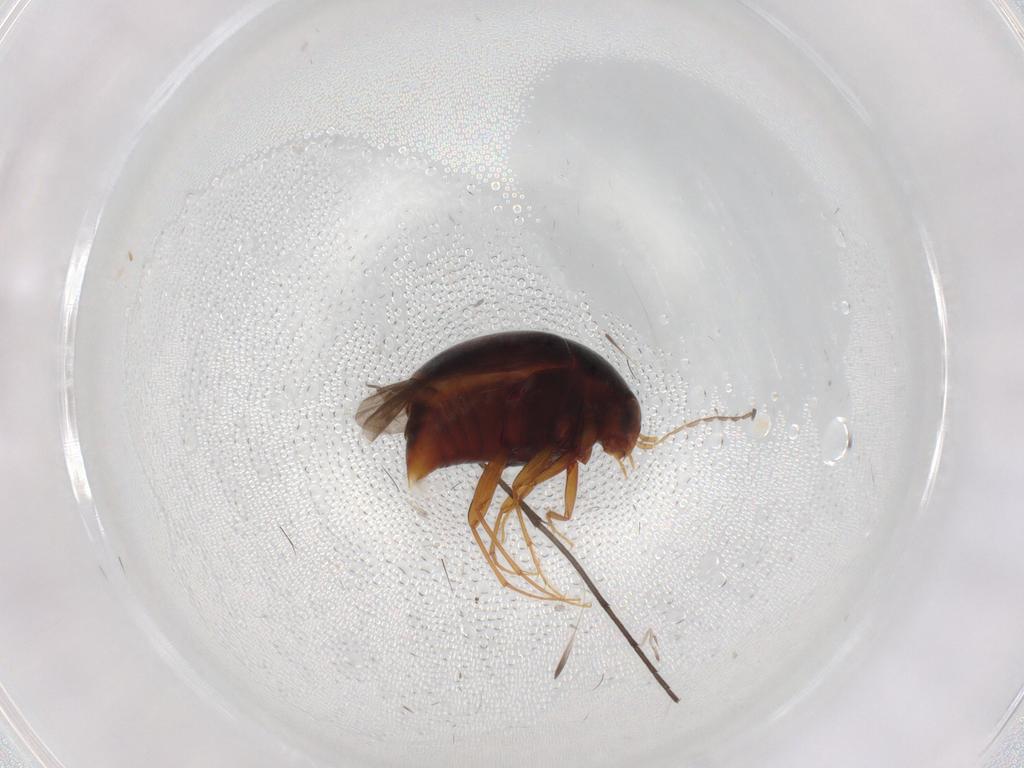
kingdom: Animalia
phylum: Arthropoda
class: Insecta
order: Coleoptera
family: Staphylinidae
